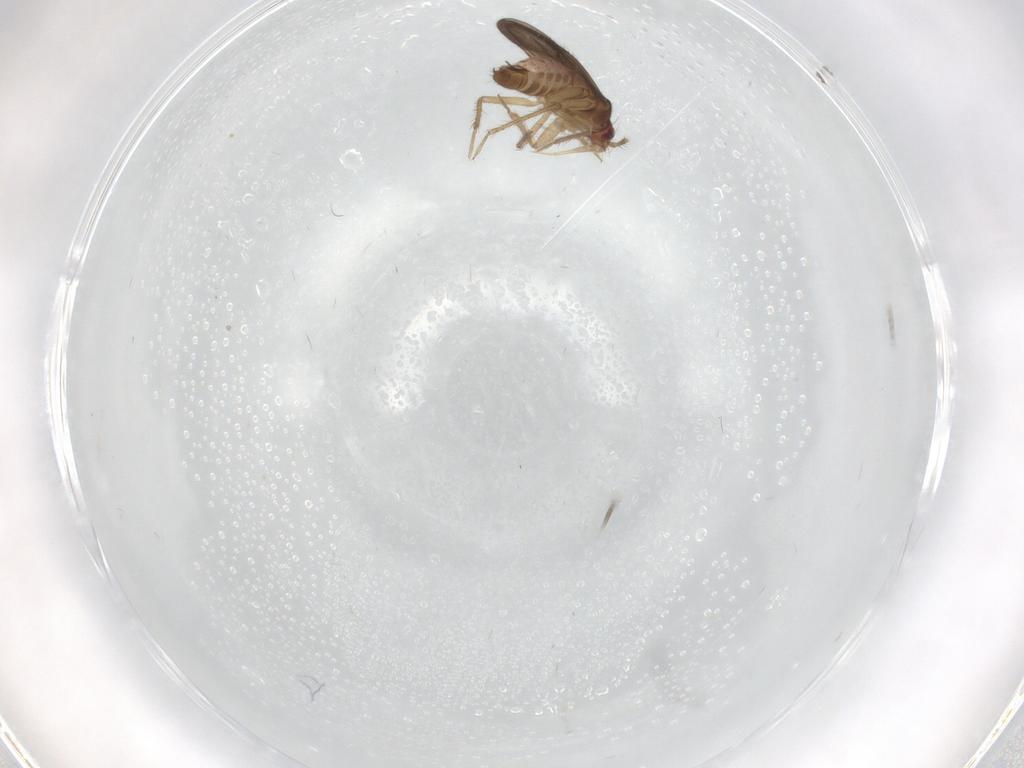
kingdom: Animalia
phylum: Arthropoda
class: Insecta
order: Hemiptera
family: Ceratocombidae
